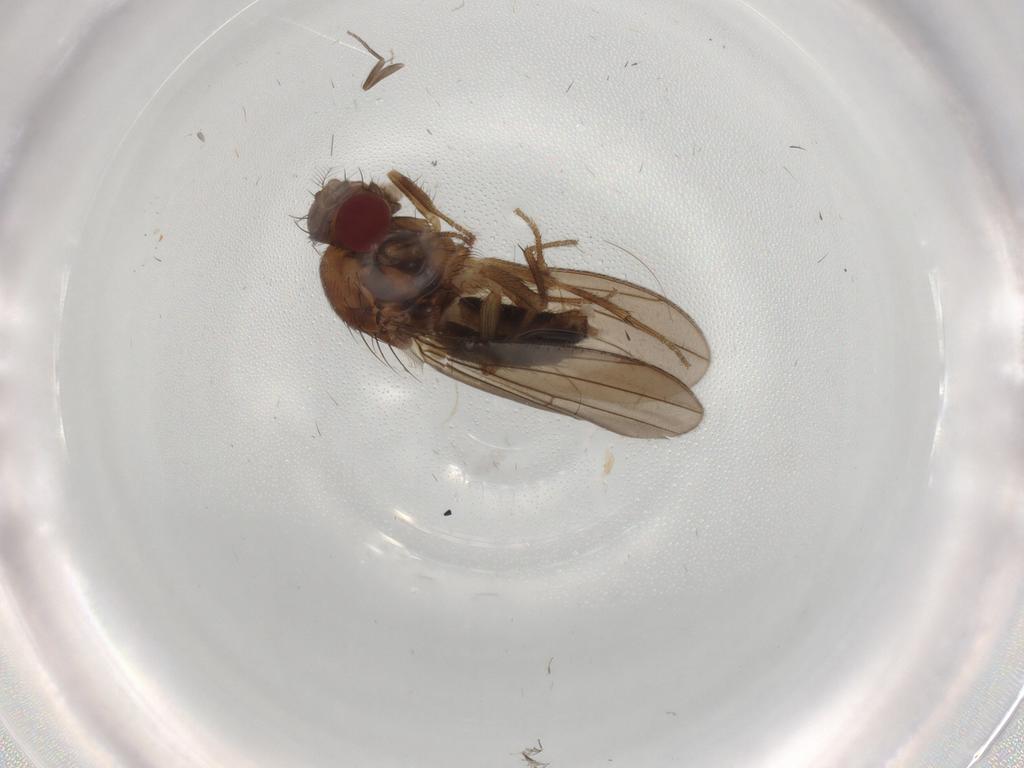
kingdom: Animalia
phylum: Arthropoda
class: Insecta
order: Diptera
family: Drosophilidae
